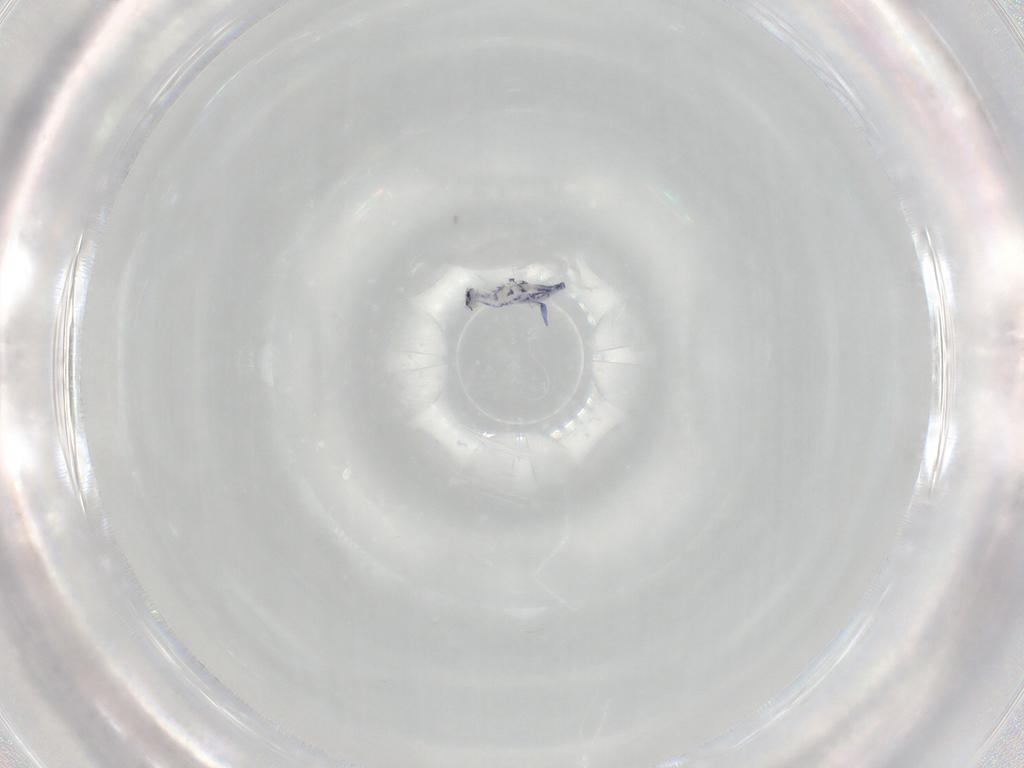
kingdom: Animalia
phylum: Arthropoda
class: Collembola
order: Entomobryomorpha
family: Entomobryidae
